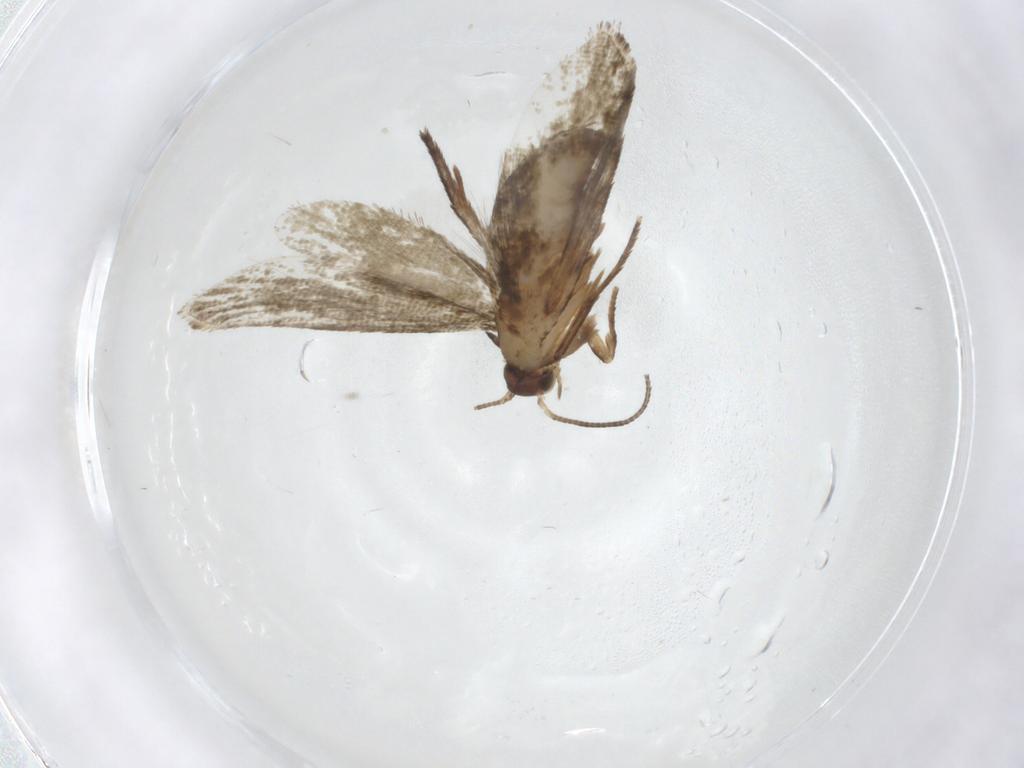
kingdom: Animalia
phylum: Arthropoda
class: Insecta
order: Lepidoptera
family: Tineidae
